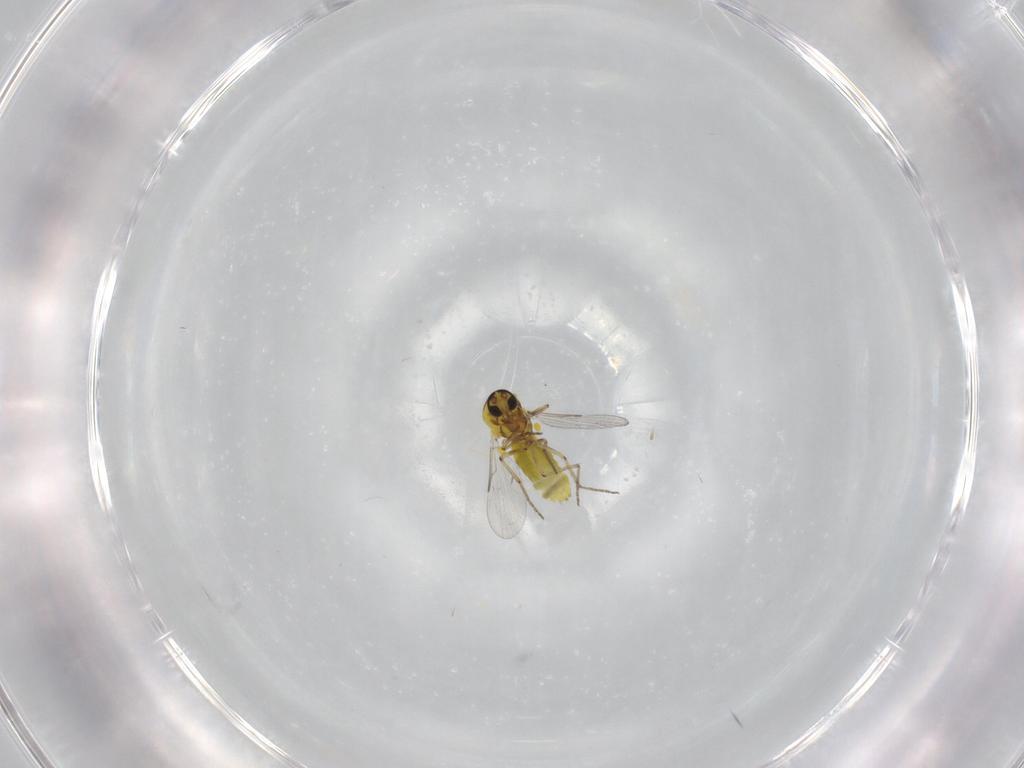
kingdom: Animalia
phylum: Arthropoda
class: Insecta
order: Diptera
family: Ceratopogonidae
